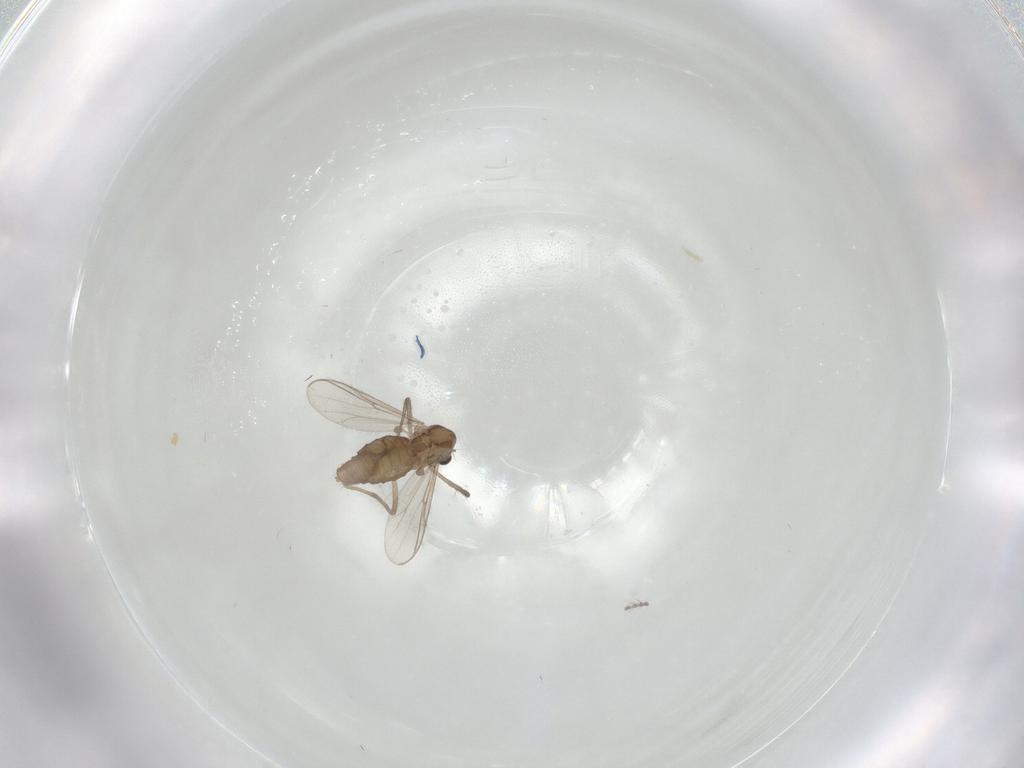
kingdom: Animalia
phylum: Arthropoda
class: Insecta
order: Diptera
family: Chironomidae
